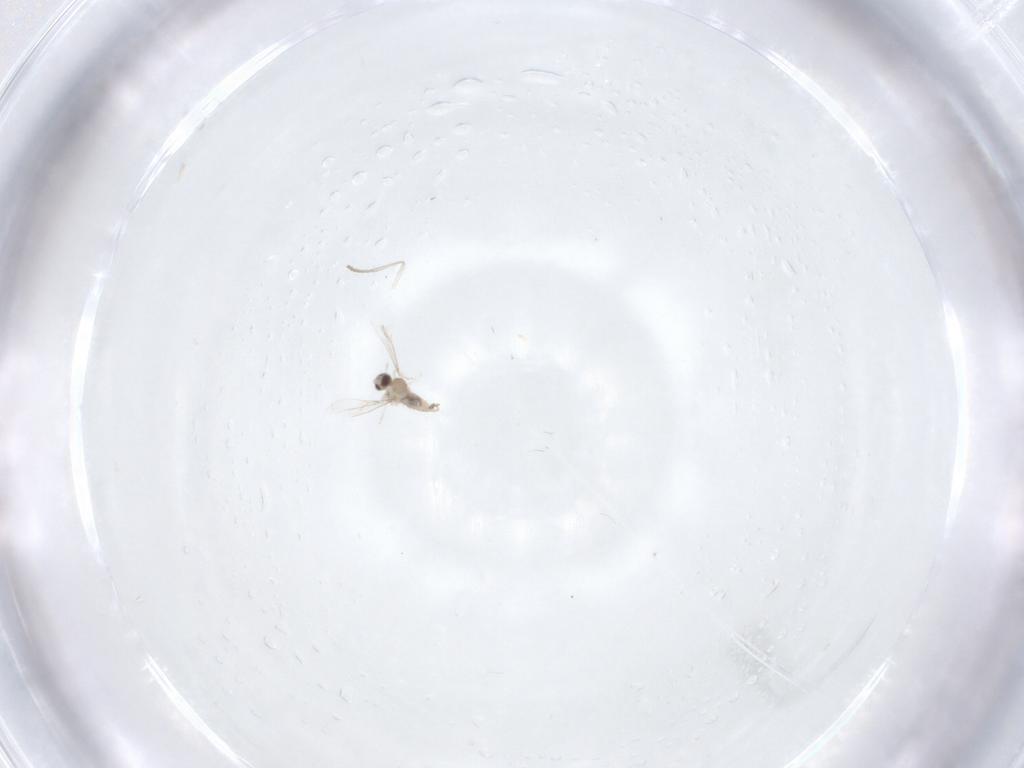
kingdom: Animalia
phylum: Arthropoda
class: Insecta
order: Diptera
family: Cecidomyiidae
